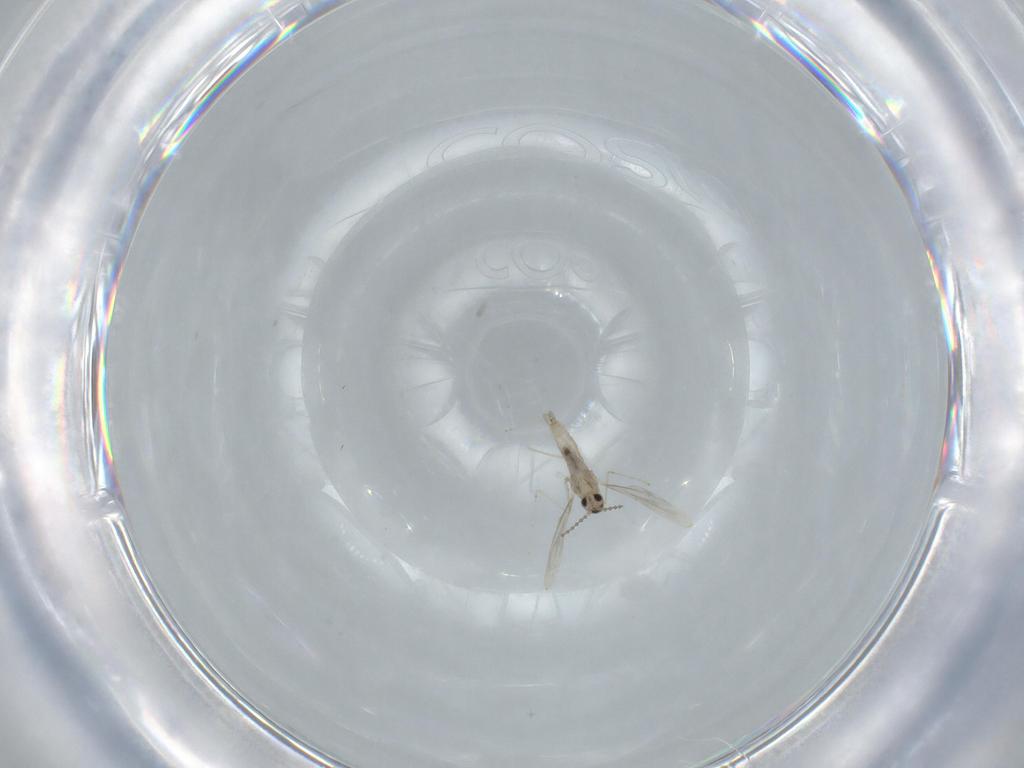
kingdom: Animalia
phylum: Arthropoda
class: Insecta
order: Diptera
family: Cecidomyiidae
